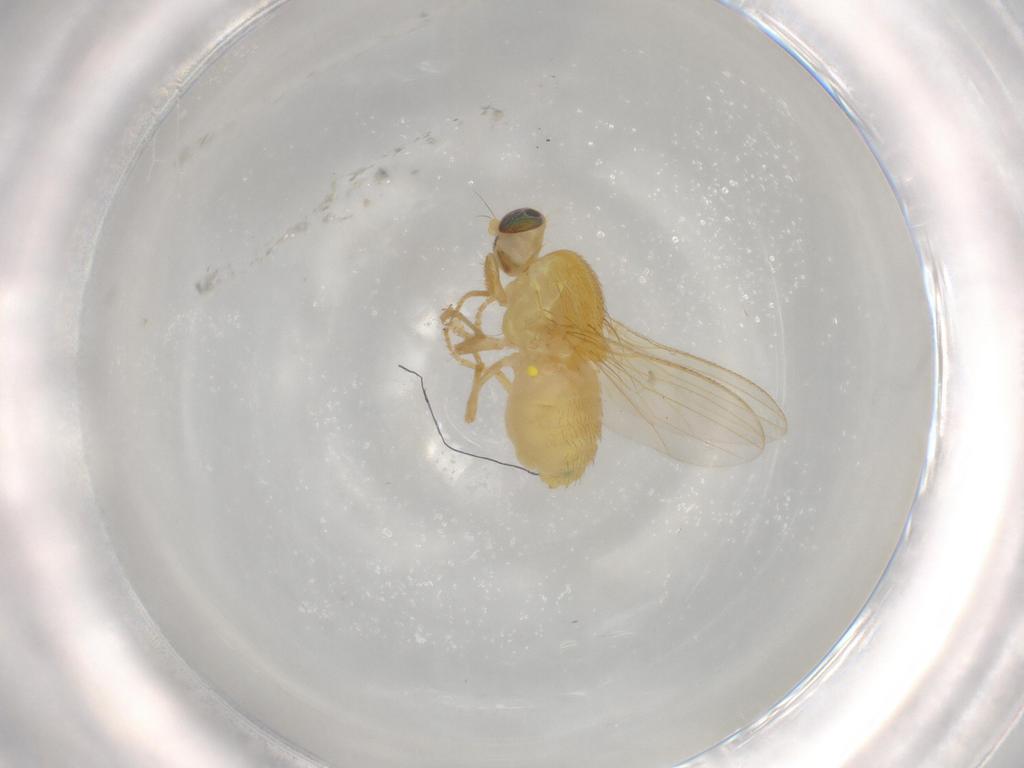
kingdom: Animalia
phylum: Arthropoda
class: Insecta
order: Diptera
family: Chyromyidae
